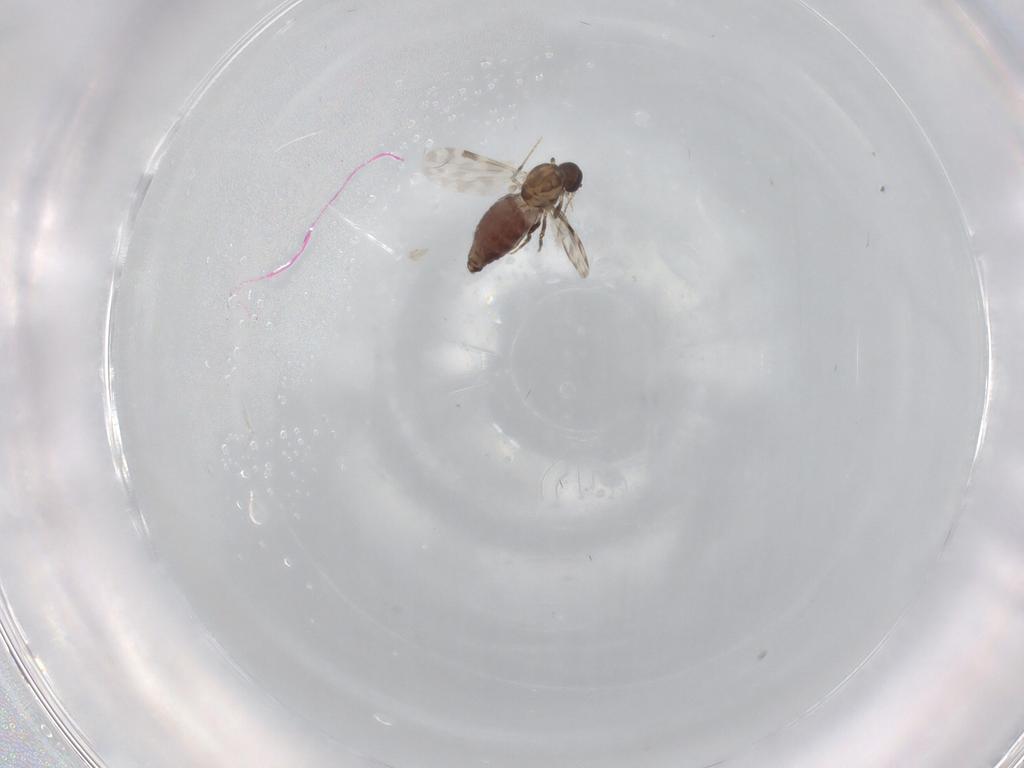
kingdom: Animalia
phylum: Arthropoda
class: Insecta
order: Diptera
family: Ceratopogonidae
